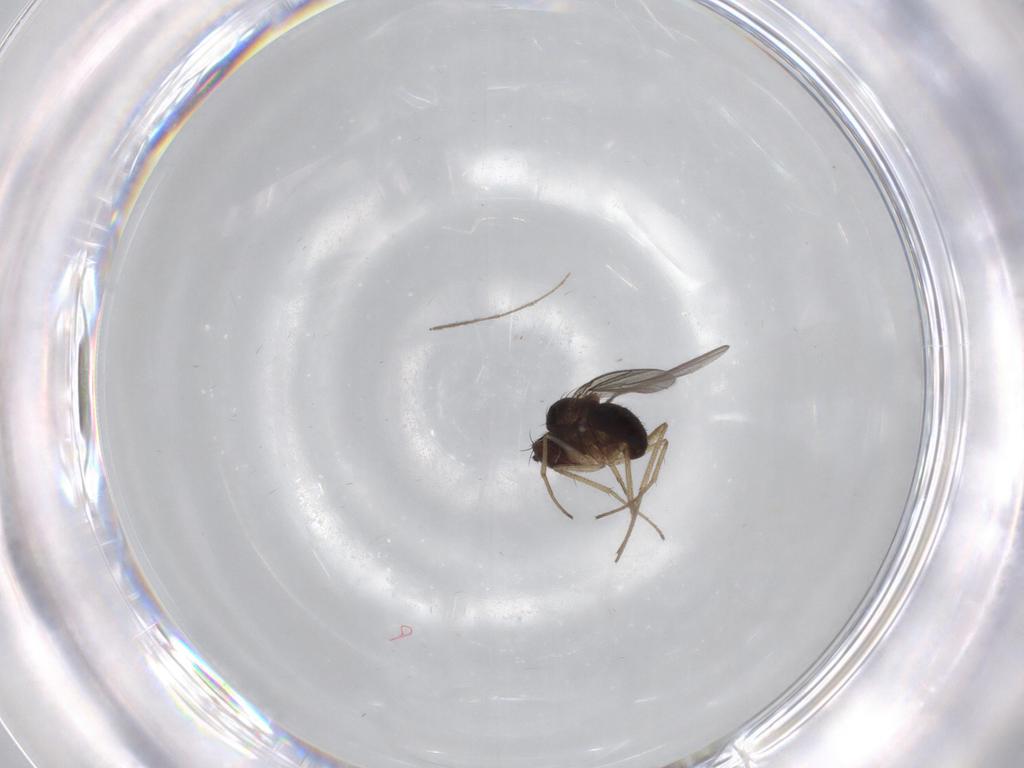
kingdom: Animalia
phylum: Arthropoda
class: Insecta
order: Diptera
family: Dolichopodidae
